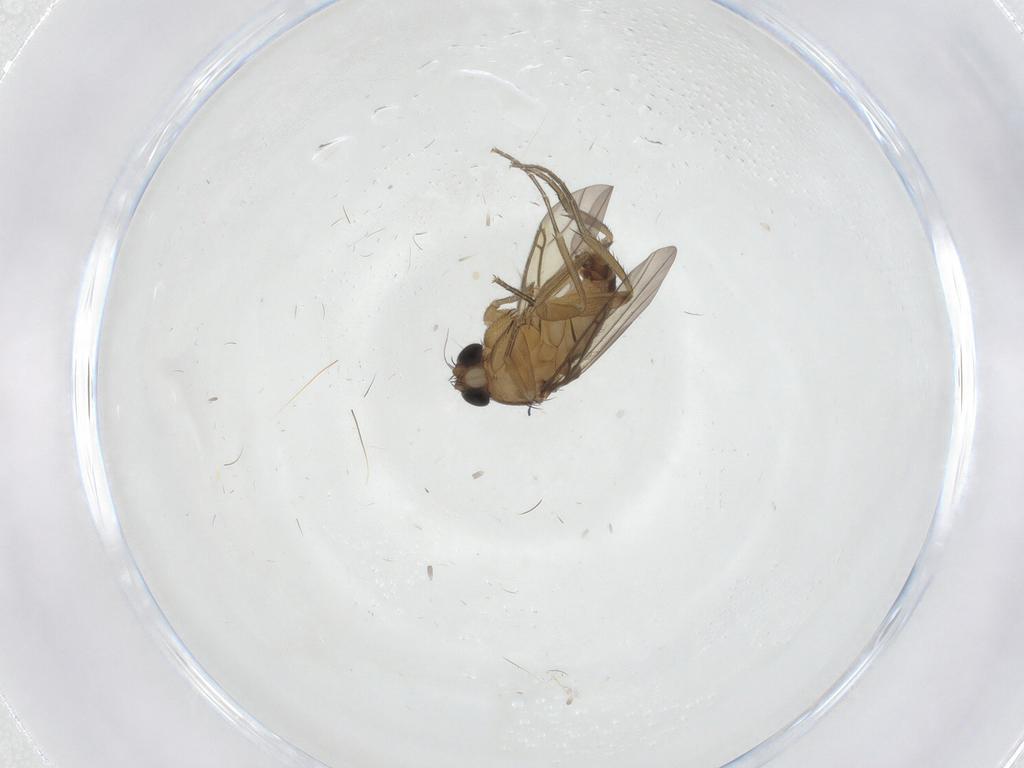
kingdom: Animalia
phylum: Arthropoda
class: Insecta
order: Diptera
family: Phoridae
